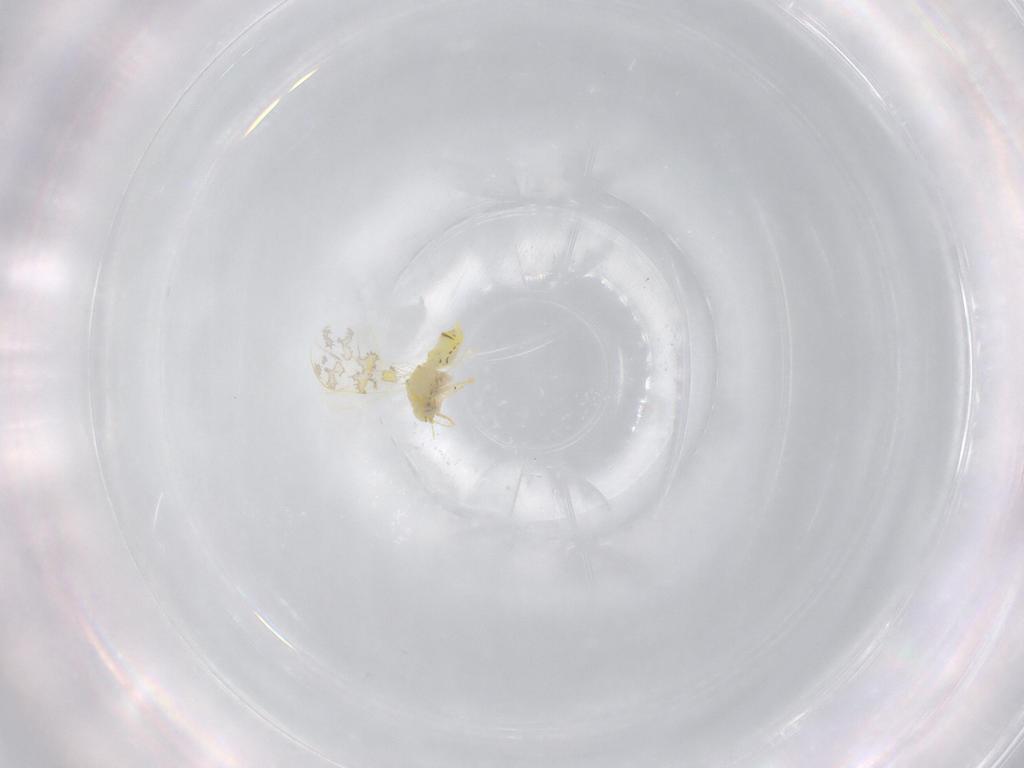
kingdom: Animalia
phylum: Arthropoda
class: Insecta
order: Hemiptera
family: Aleyrodidae
